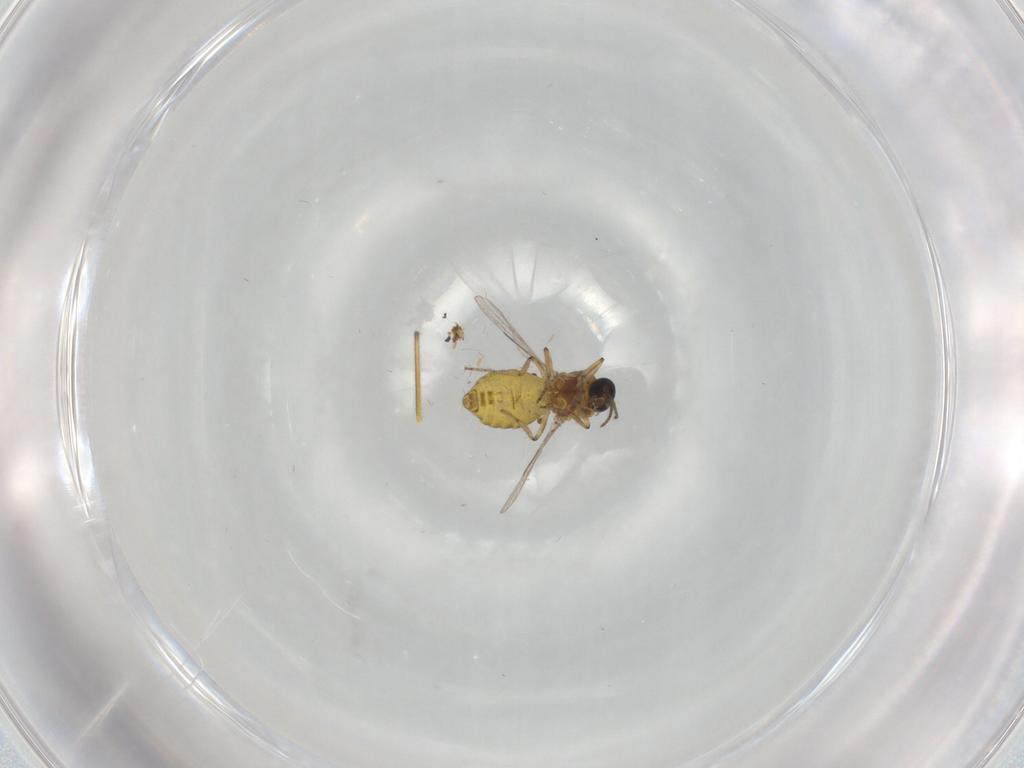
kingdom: Animalia
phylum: Arthropoda
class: Insecta
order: Diptera
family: Ceratopogonidae
